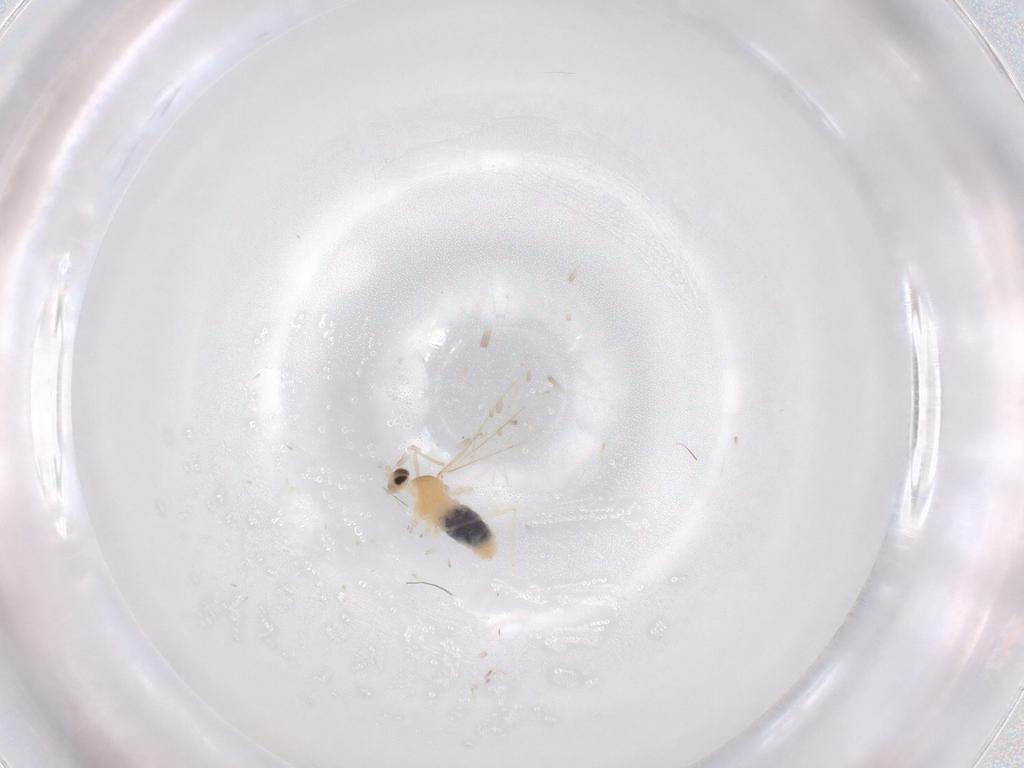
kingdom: Animalia
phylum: Arthropoda
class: Insecta
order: Diptera
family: Cecidomyiidae
